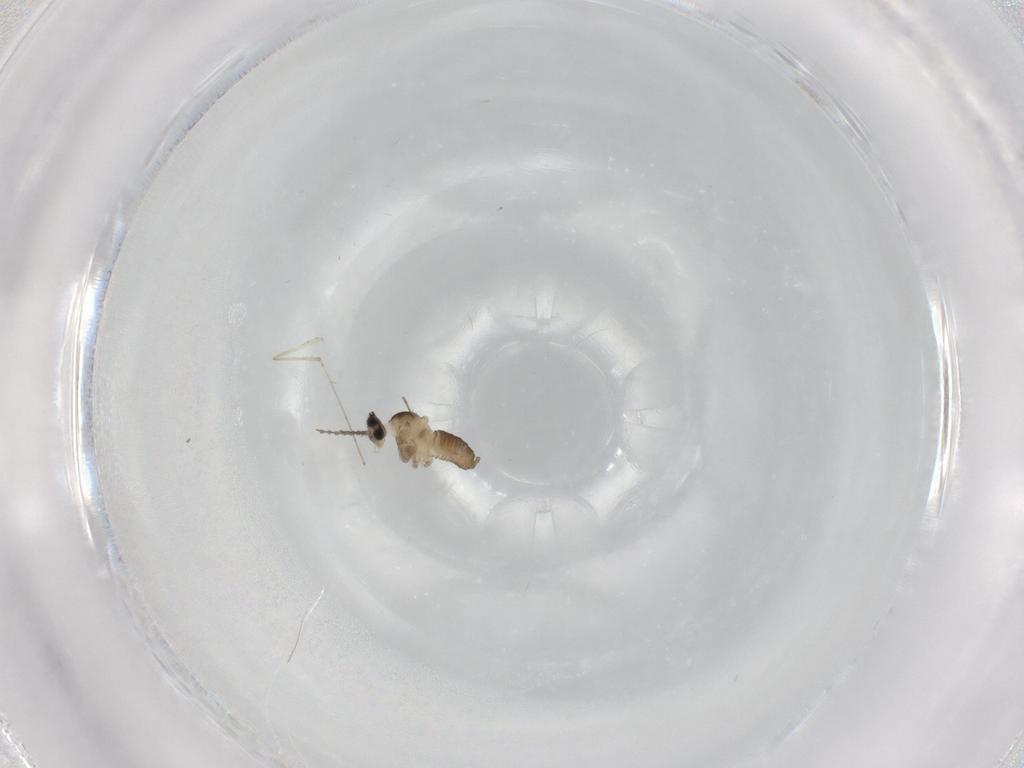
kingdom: Animalia
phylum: Arthropoda
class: Insecta
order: Diptera
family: Cecidomyiidae
